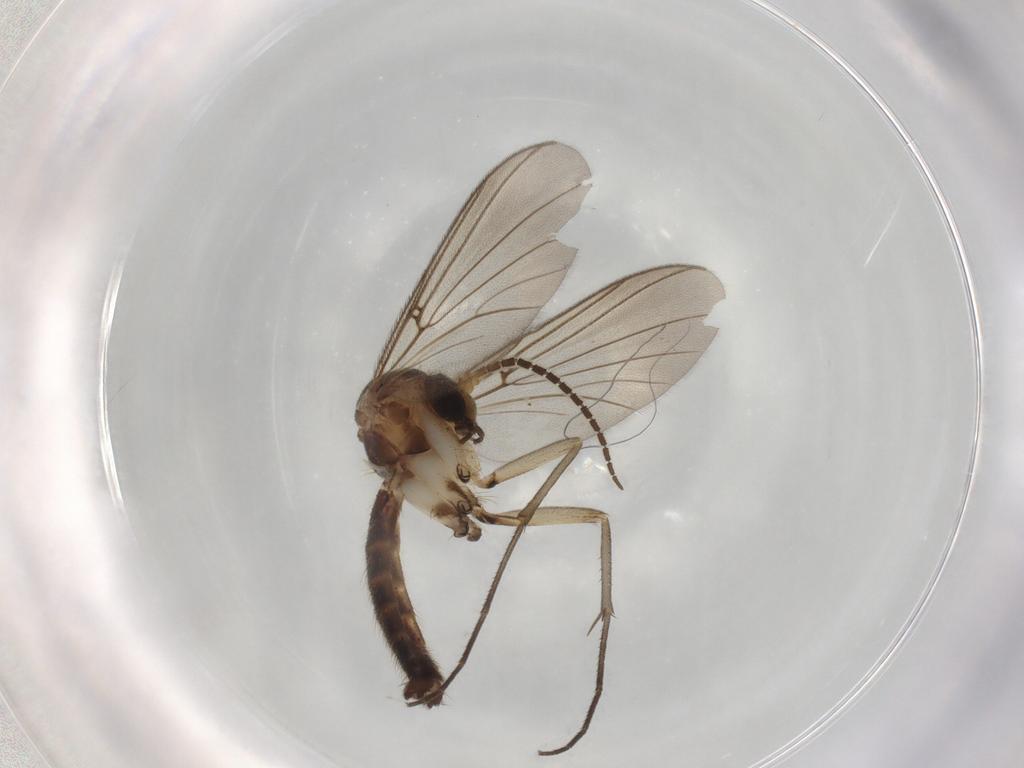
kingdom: Animalia
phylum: Arthropoda
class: Insecta
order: Diptera
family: Mycetophilidae
